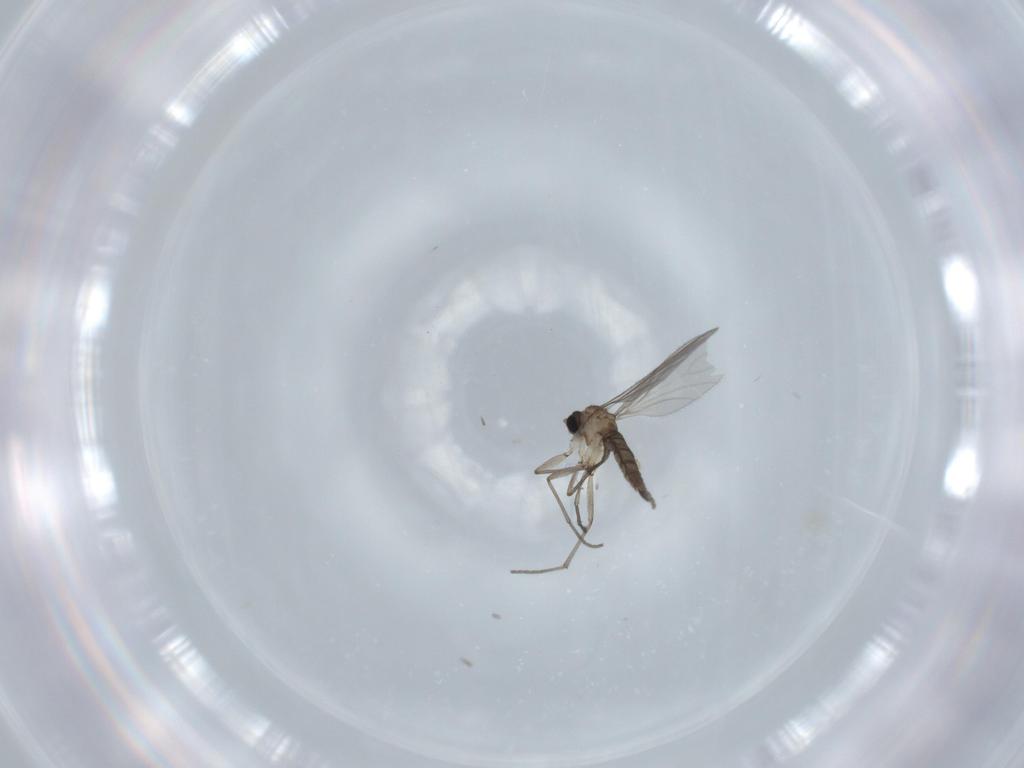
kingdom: Animalia
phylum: Arthropoda
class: Insecta
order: Diptera
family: Sciaridae
